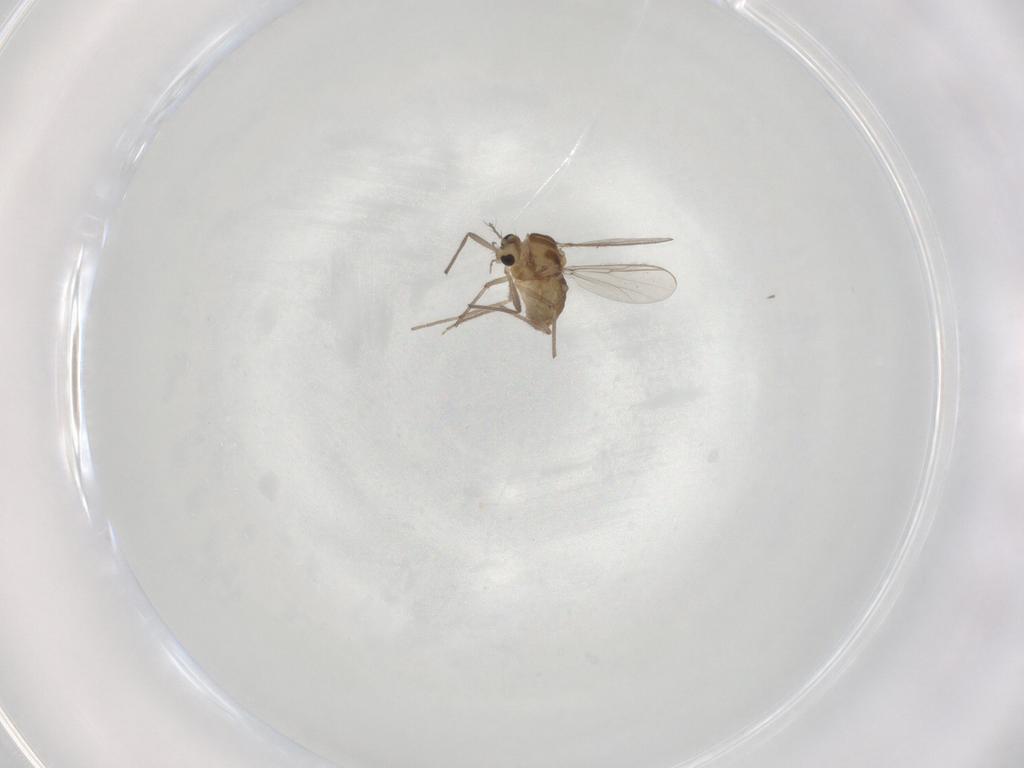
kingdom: Animalia
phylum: Arthropoda
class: Insecta
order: Diptera
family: Chironomidae
